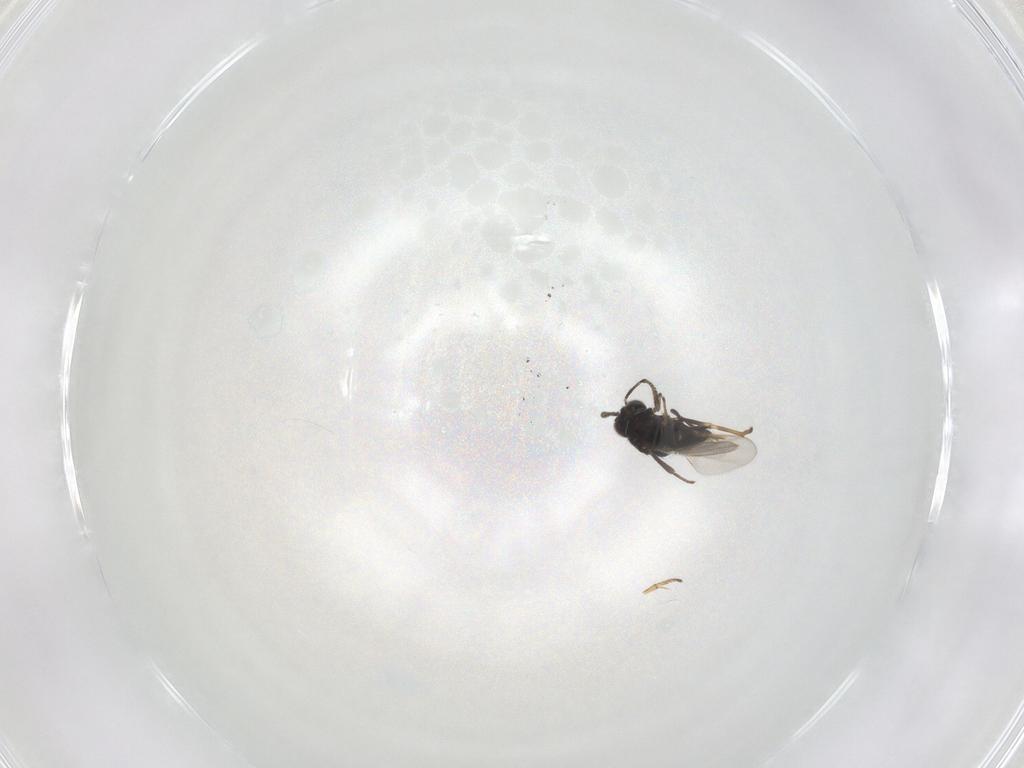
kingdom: Animalia
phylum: Arthropoda
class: Insecta
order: Hymenoptera
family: Encyrtidae
